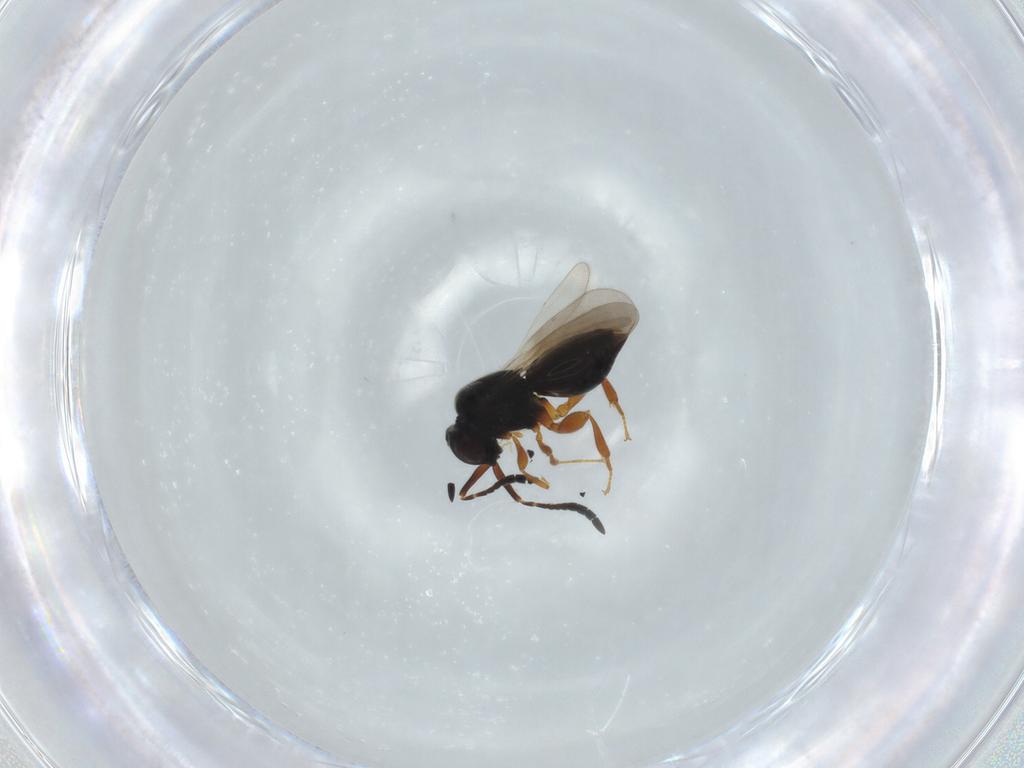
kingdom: Animalia
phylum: Arthropoda
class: Insecta
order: Hymenoptera
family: Ceraphronidae
